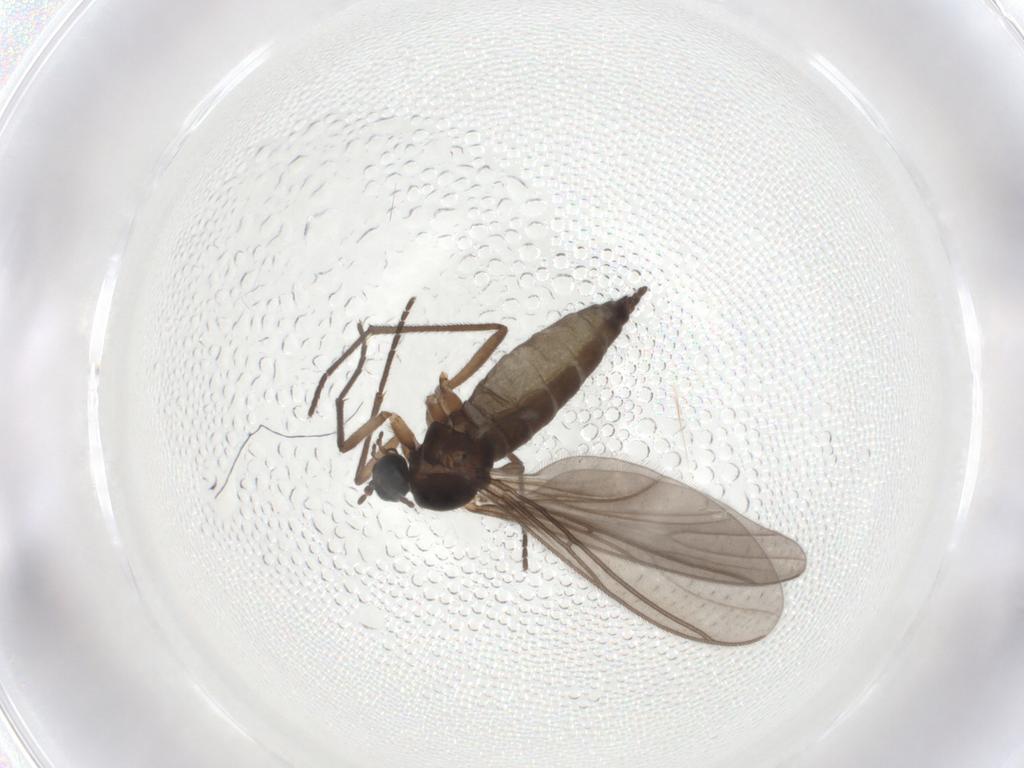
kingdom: Animalia
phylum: Arthropoda
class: Insecta
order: Diptera
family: Sciaridae
